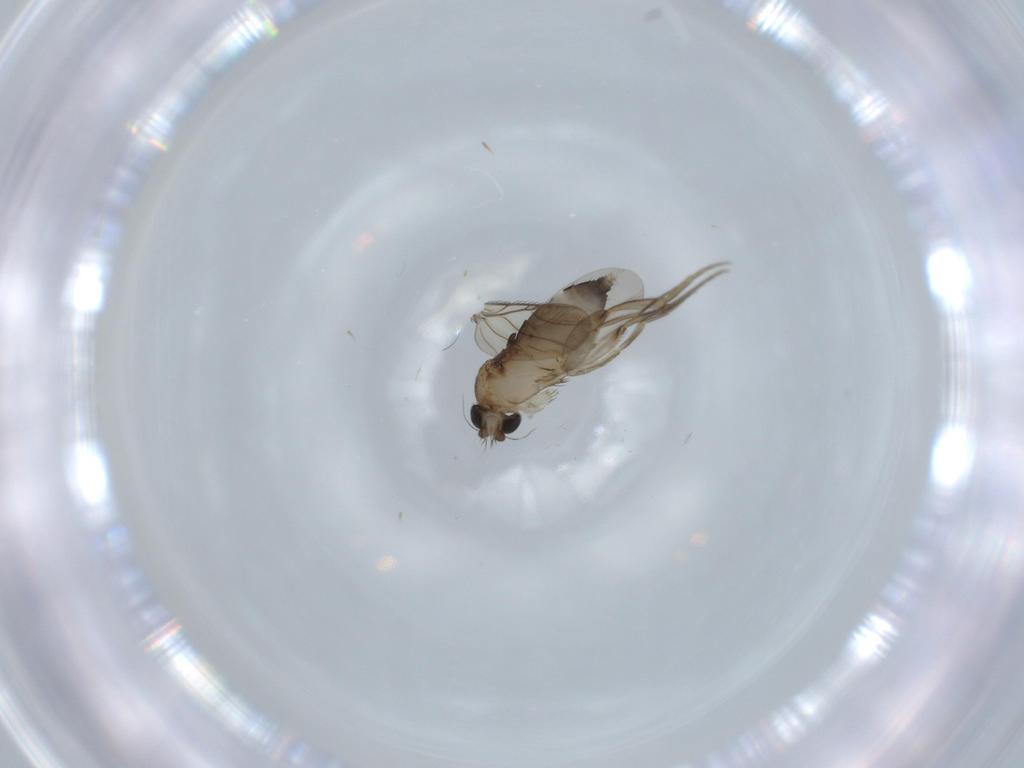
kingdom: Animalia
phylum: Arthropoda
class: Insecta
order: Diptera
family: Phoridae
